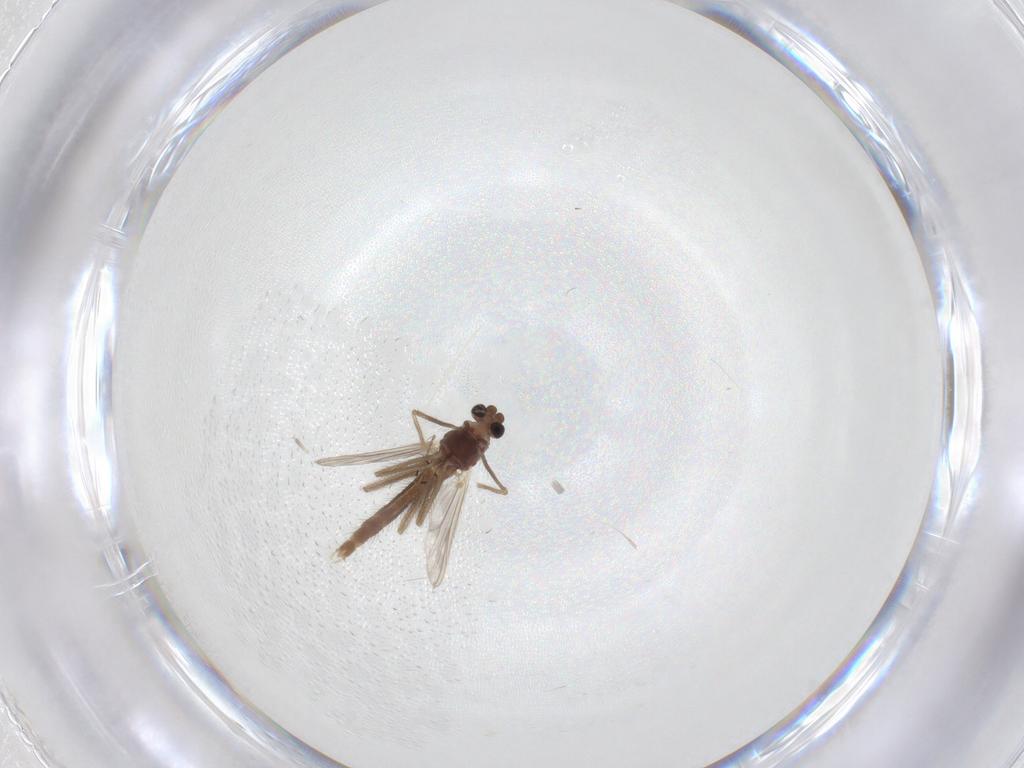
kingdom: Animalia
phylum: Arthropoda
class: Insecta
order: Diptera
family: Chironomidae
